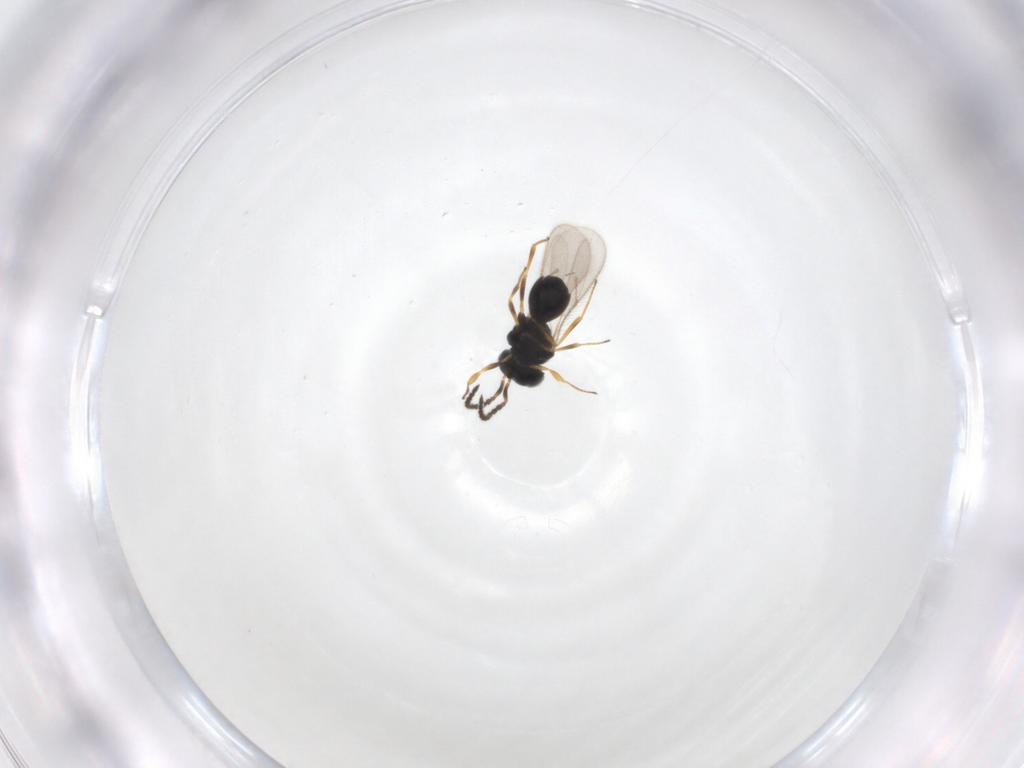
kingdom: Animalia
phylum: Arthropoda
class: Insecta
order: Hymenoptera
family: Scelionidae
